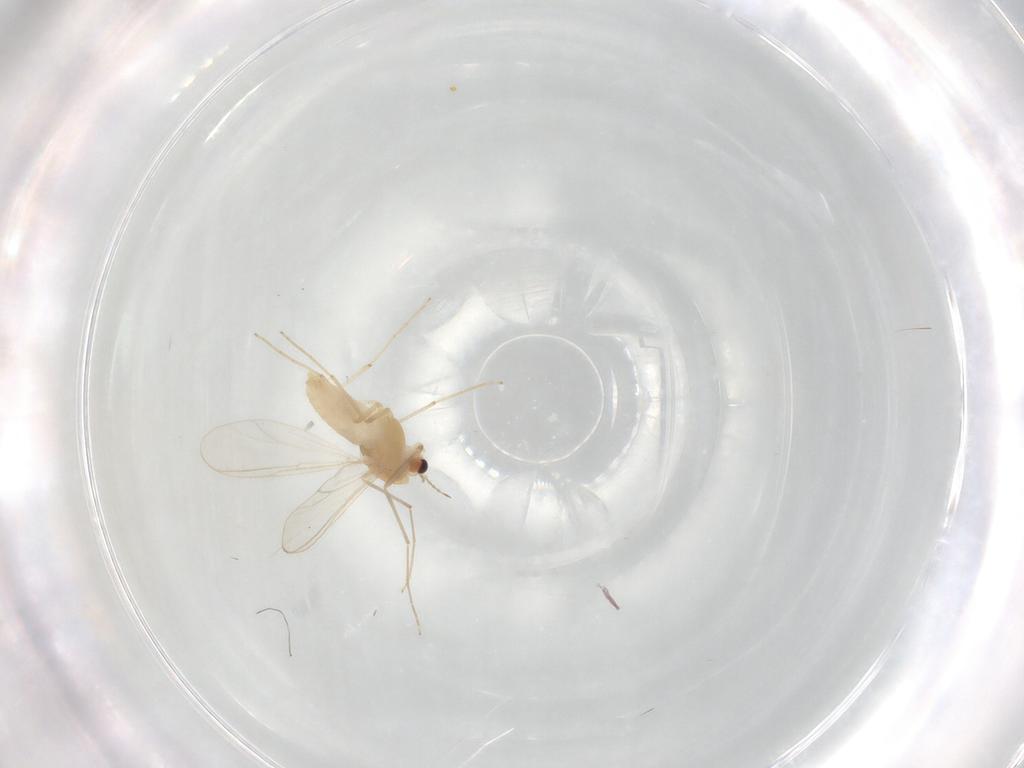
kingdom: Animalia
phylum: Arthropoda
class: Insecta
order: Diptera
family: Chironomidae
